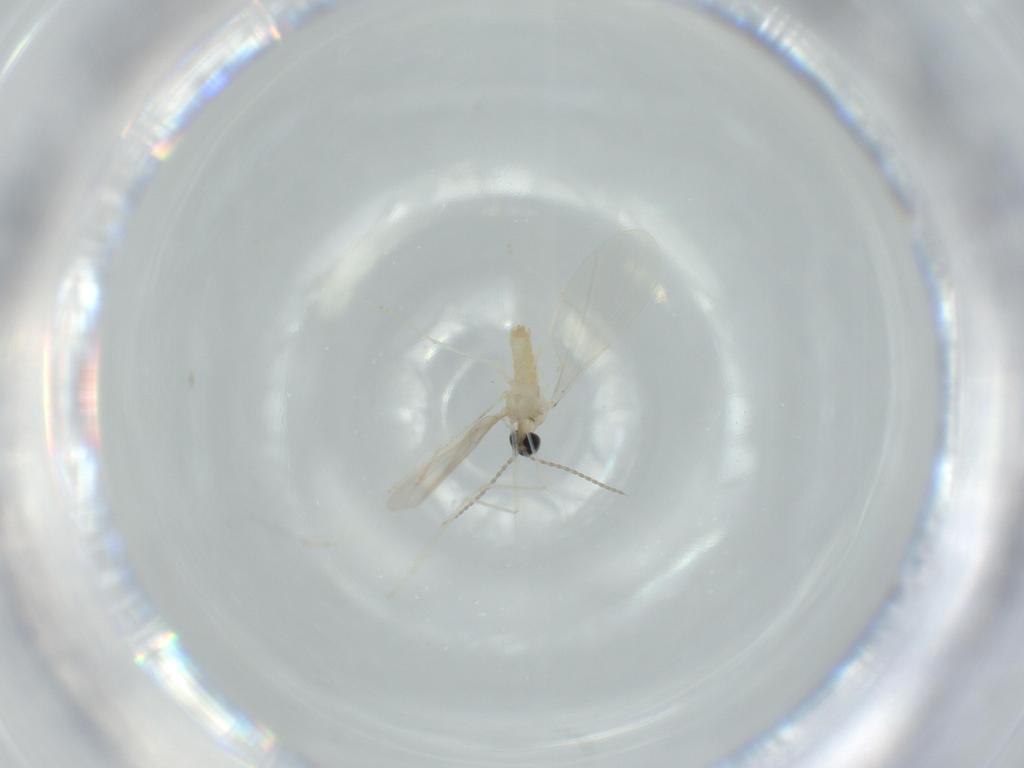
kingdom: Animalia
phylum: Arthropoda
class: Insecta
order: Diptera
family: Cecidomyiidae
